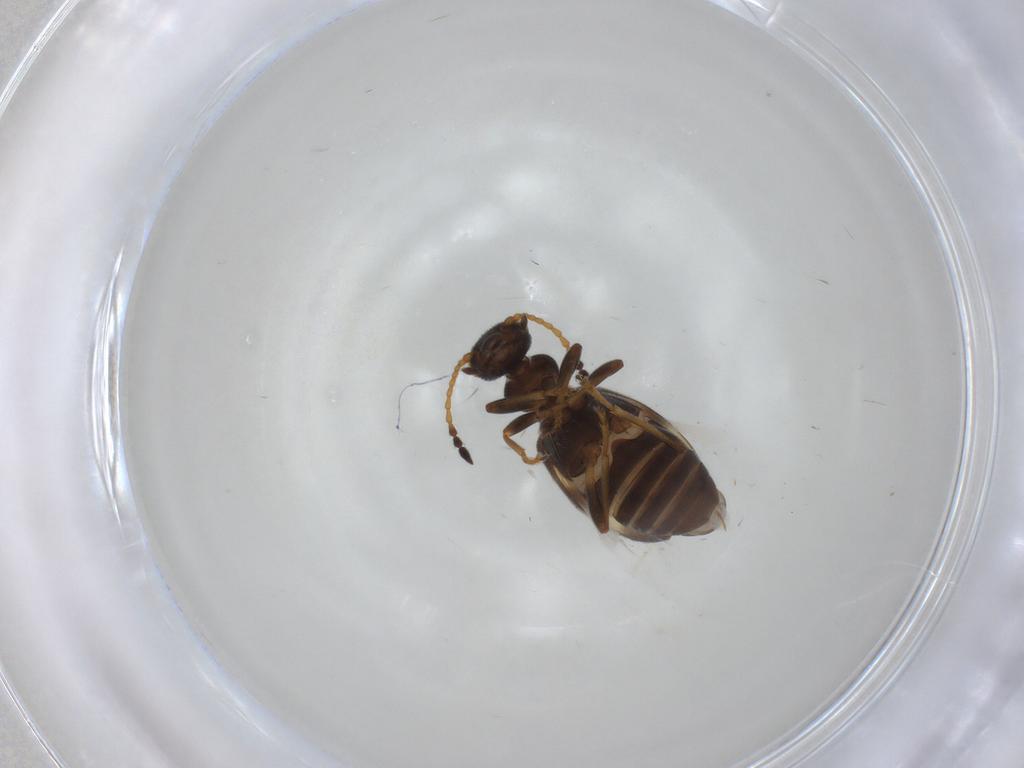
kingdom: Animalia
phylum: Arthropoda
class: Insecta
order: Coleoptera
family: Anthicidae
